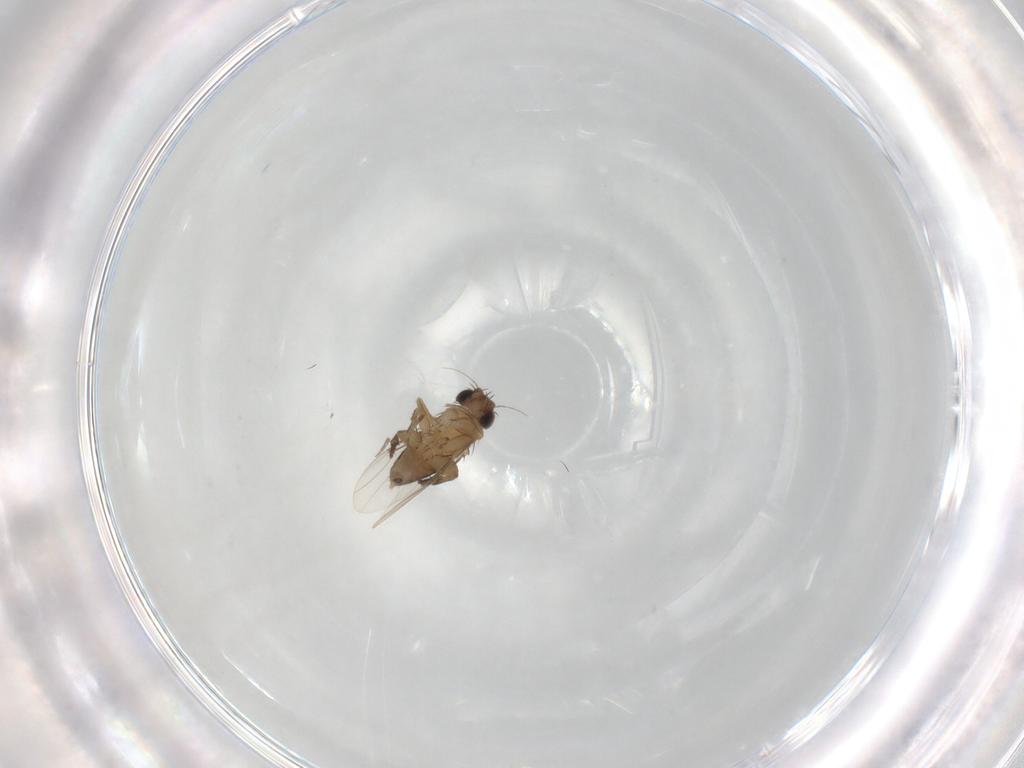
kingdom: Animalia
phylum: Arthropoda
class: Insecta
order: Diptera
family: Phoridae
